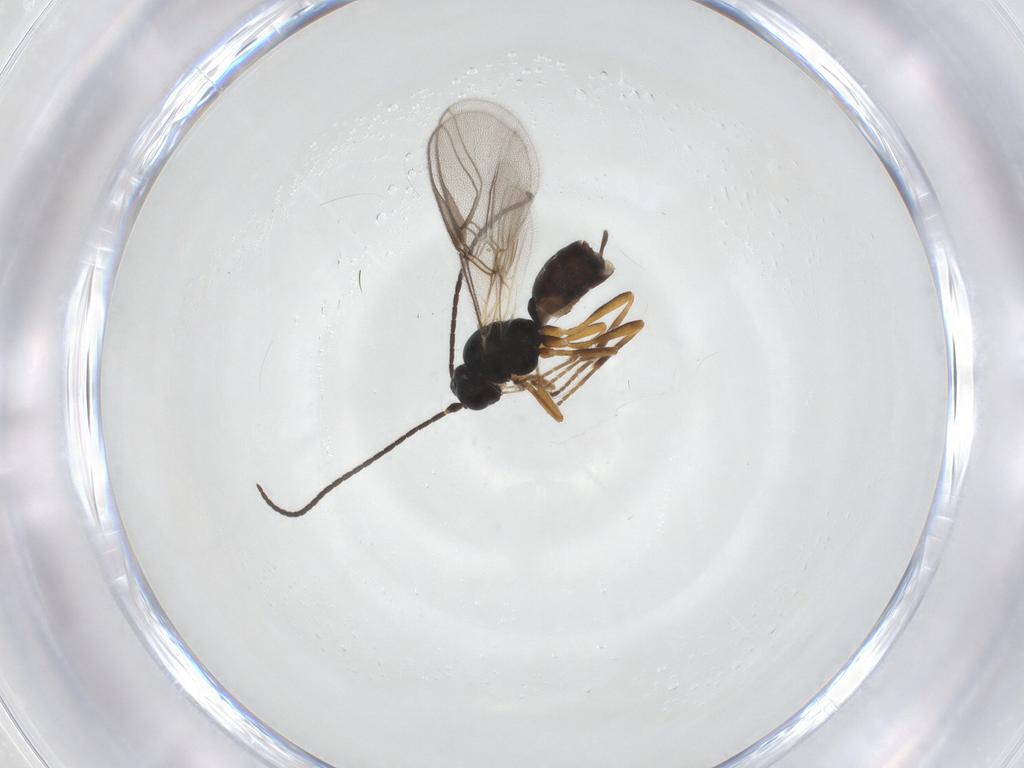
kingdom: Animalia
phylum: Arthropoda
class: Insecta
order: Hymenoptera
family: Braconidae
